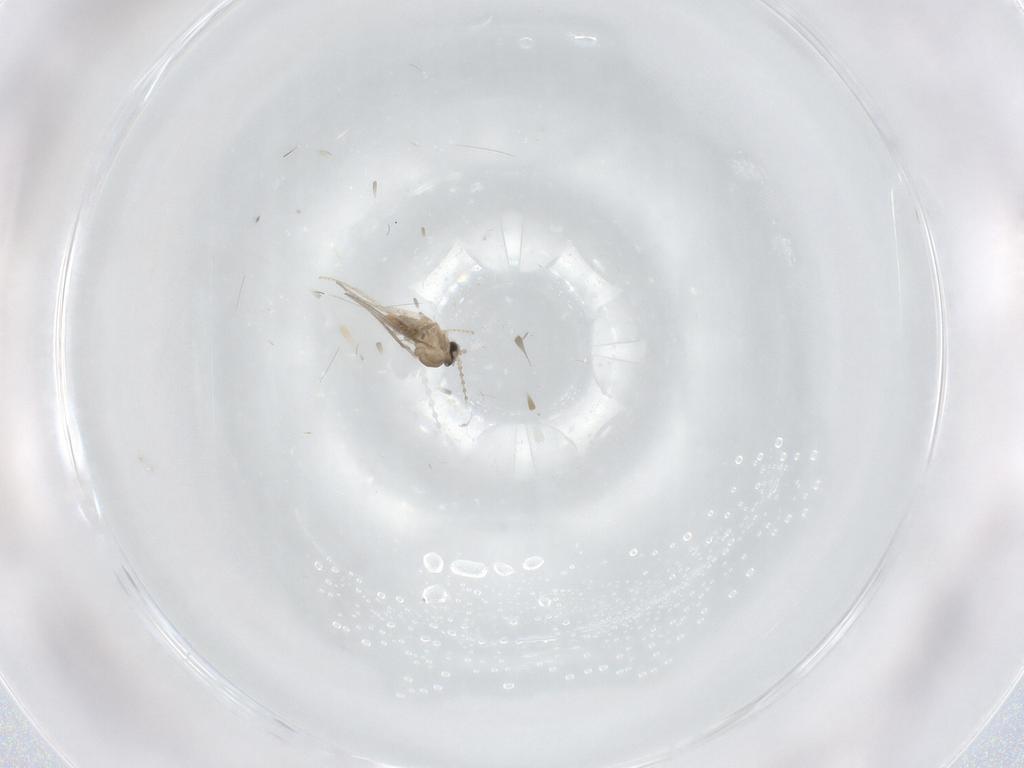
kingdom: Animalia
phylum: Arthropoda
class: Insecta
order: Diptera
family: Cecidomyiidae
